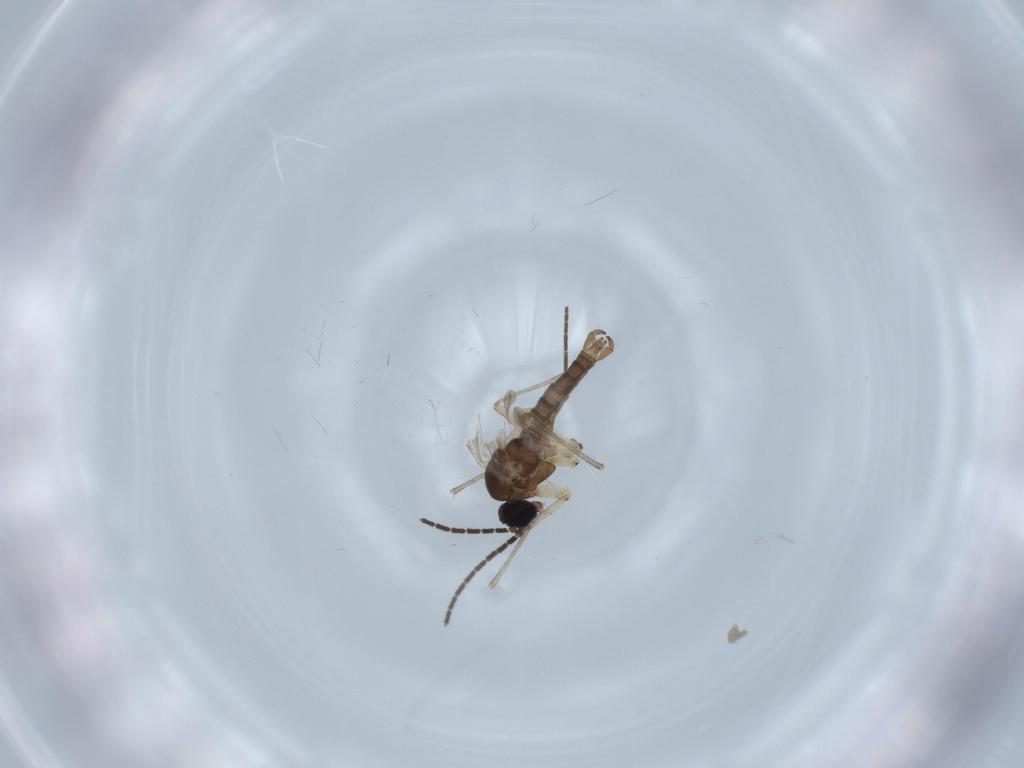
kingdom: Animalia
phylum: Arthropoda
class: Insecta
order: Diptera
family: Sciaridae
